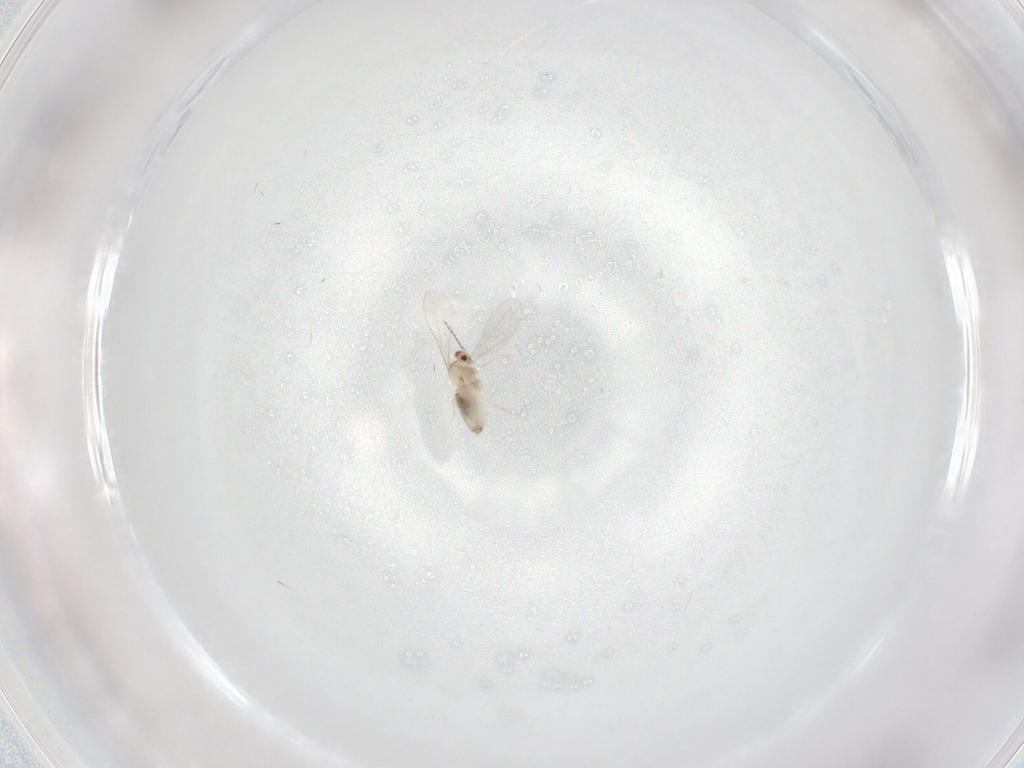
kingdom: Animalia
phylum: Arthropoda
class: Insecta
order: Diptera
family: Cecidomyiidae
